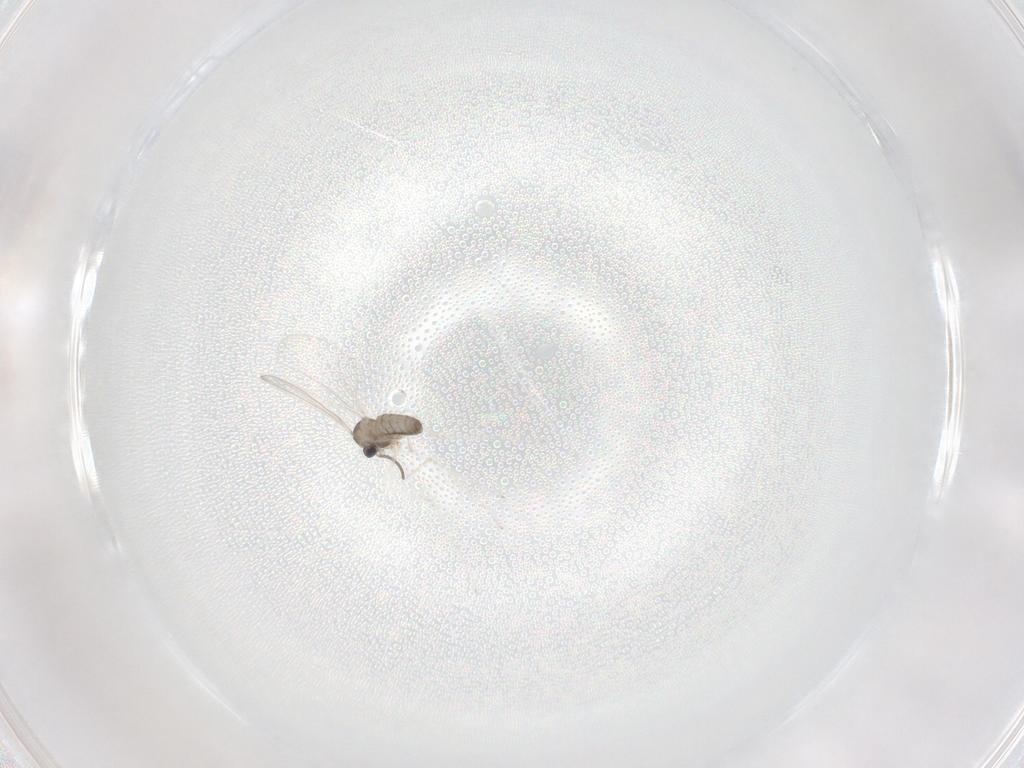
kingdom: Animalia
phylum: Arthropoda
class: Insecta
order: Diptera
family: Cecidomyiidae
